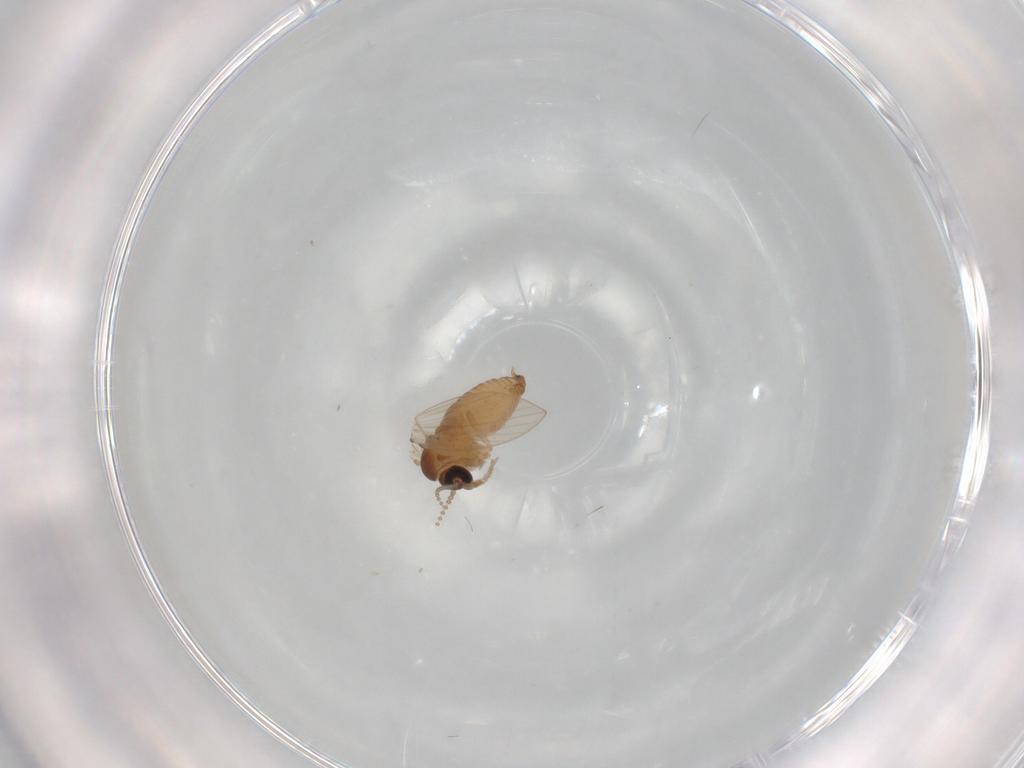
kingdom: Animalia
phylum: Arthropoda
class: Insecta
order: Diptera
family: Psychodidae
